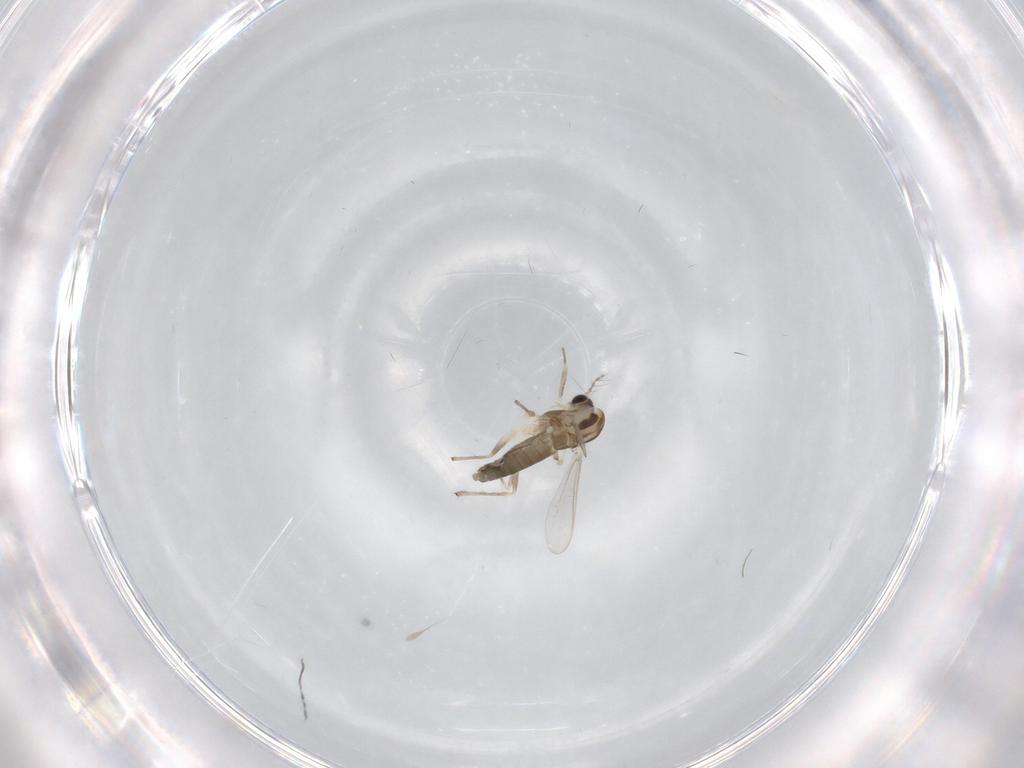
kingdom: Animalia
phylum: Arthropoda
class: Insecta
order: Diptera
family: Chironomidae
